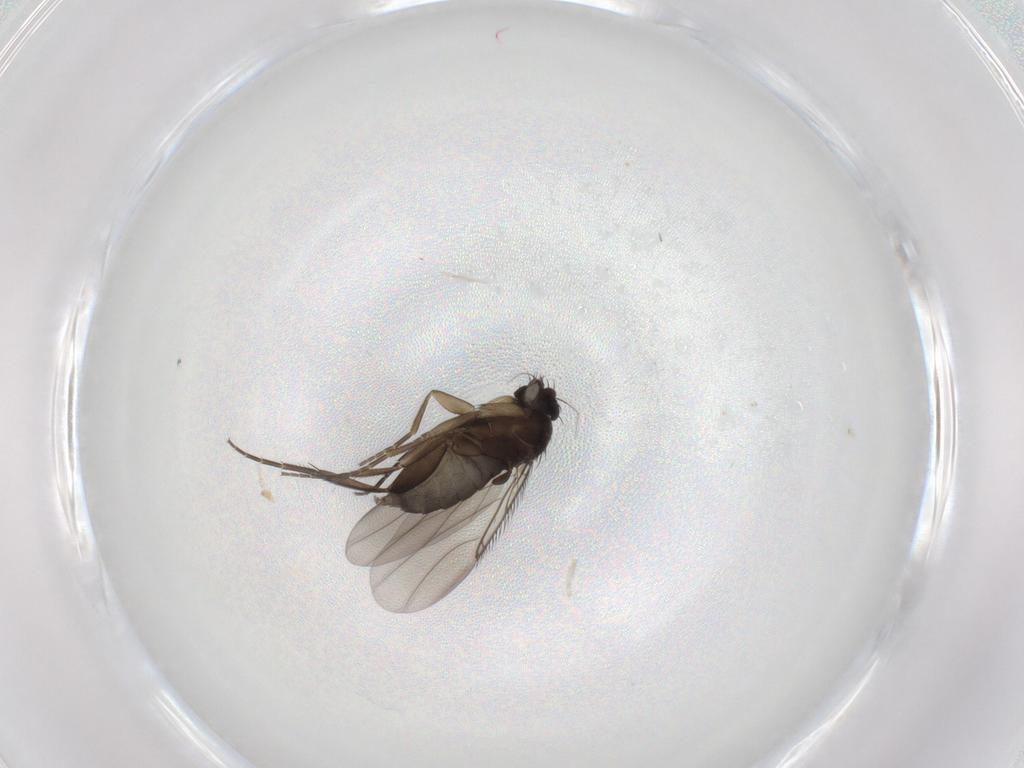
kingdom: Animalia
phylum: Arthropoda
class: Insecta
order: Diptera
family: Phoridae
